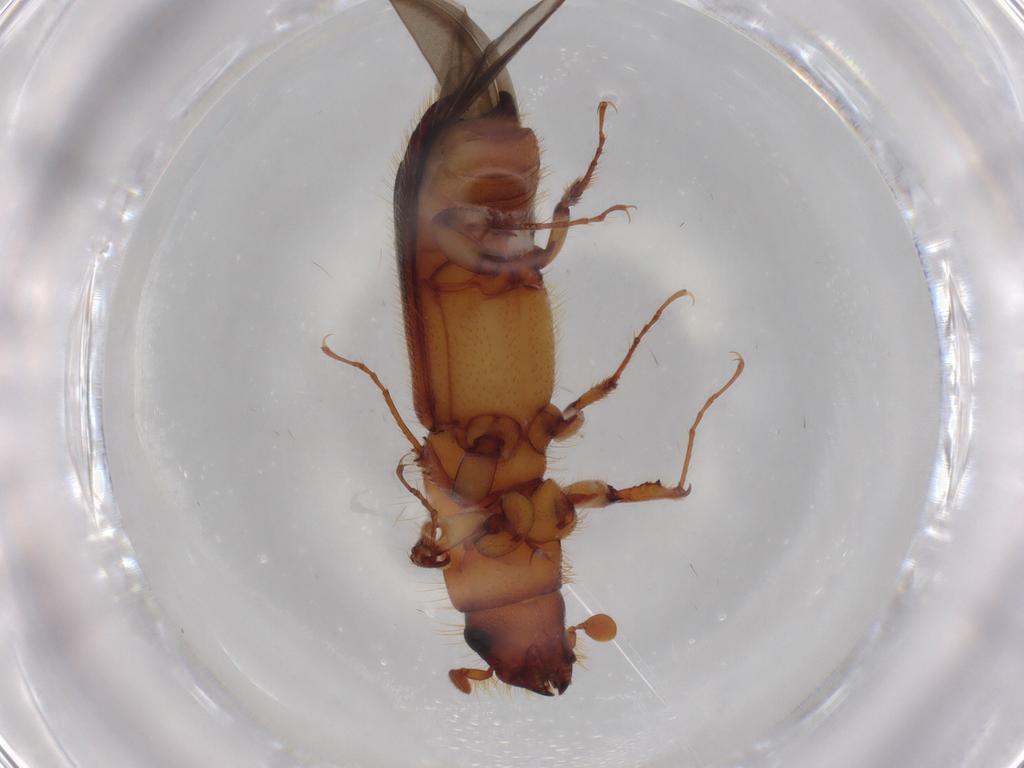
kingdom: Animalia
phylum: Arthropoda
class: Insecta
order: Coleoptera
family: Curculionidae
